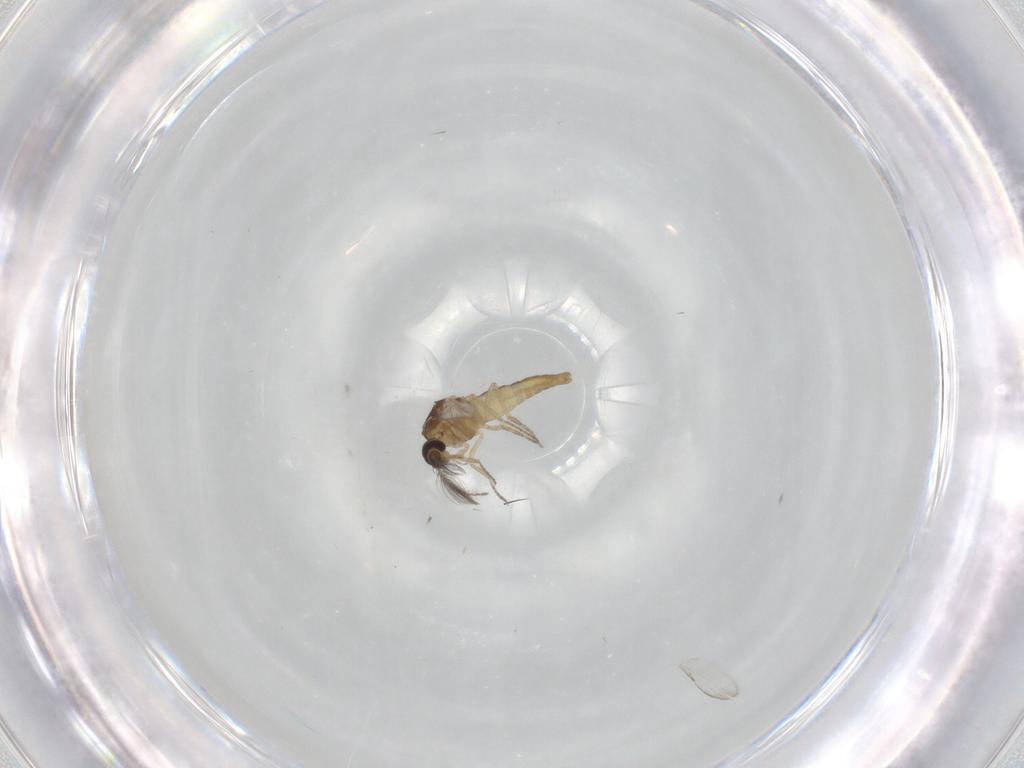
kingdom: Animalia
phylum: Arthropoda
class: Insecta
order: Diptera
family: Ceratopogonidae
